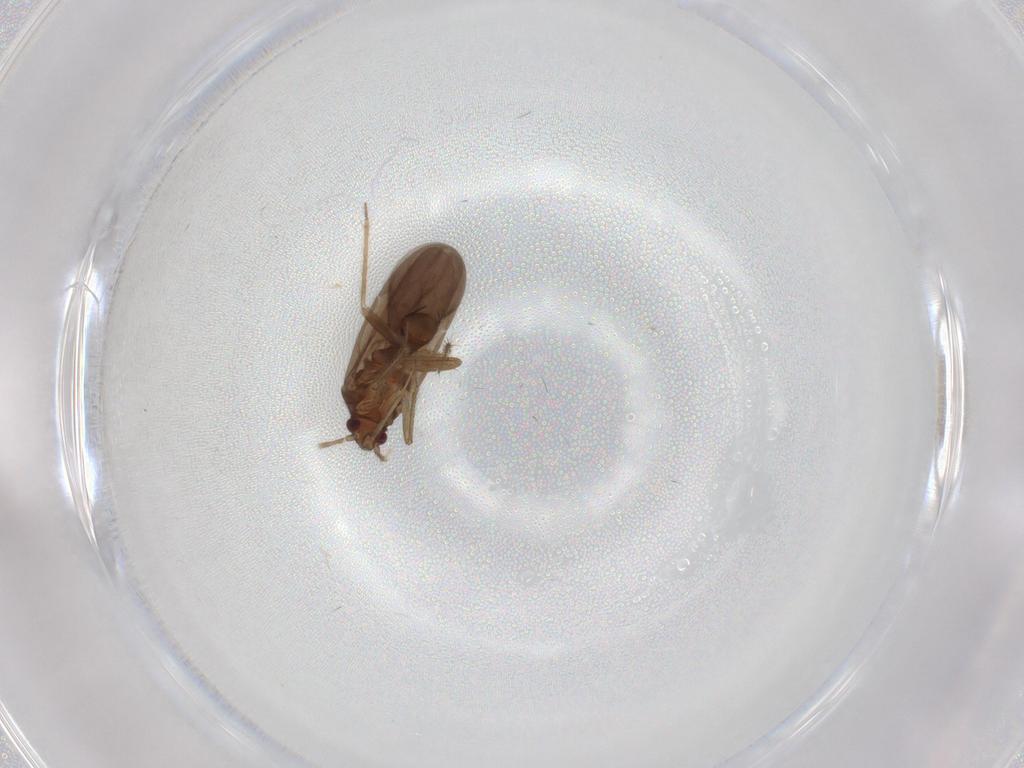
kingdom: Animalia
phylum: Arthropoda
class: Insecta
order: Hemiptera
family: Ceratocombidae
